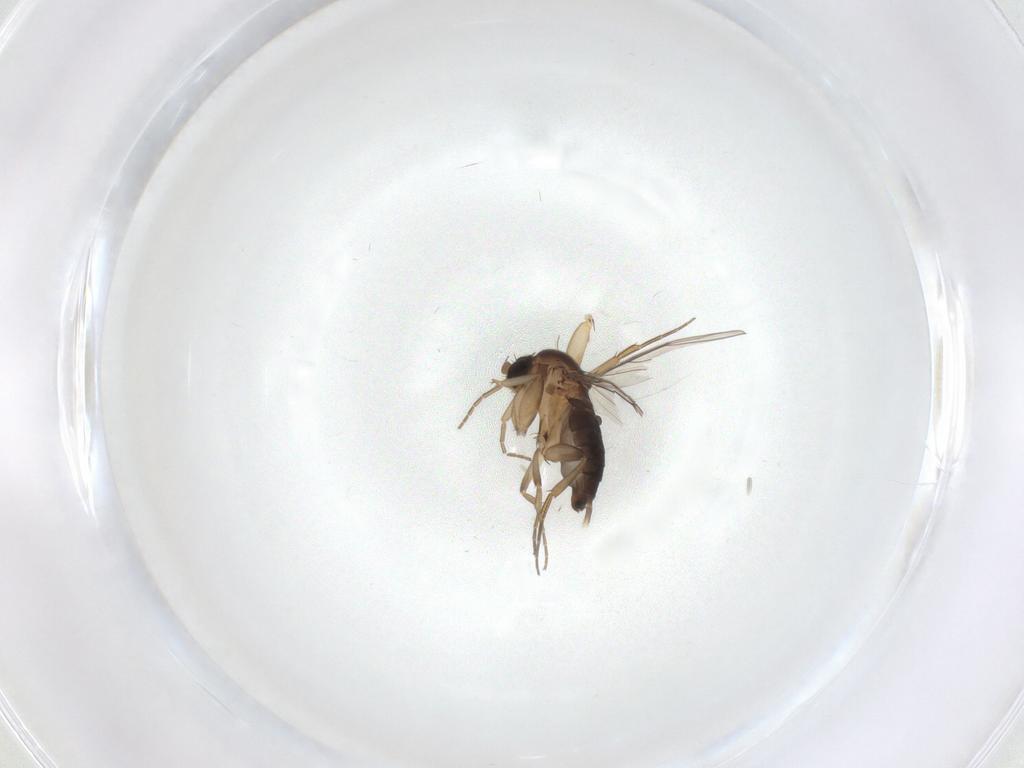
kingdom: Animalia
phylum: Arthropoda
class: Insecta
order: Diptera
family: Phoridae
